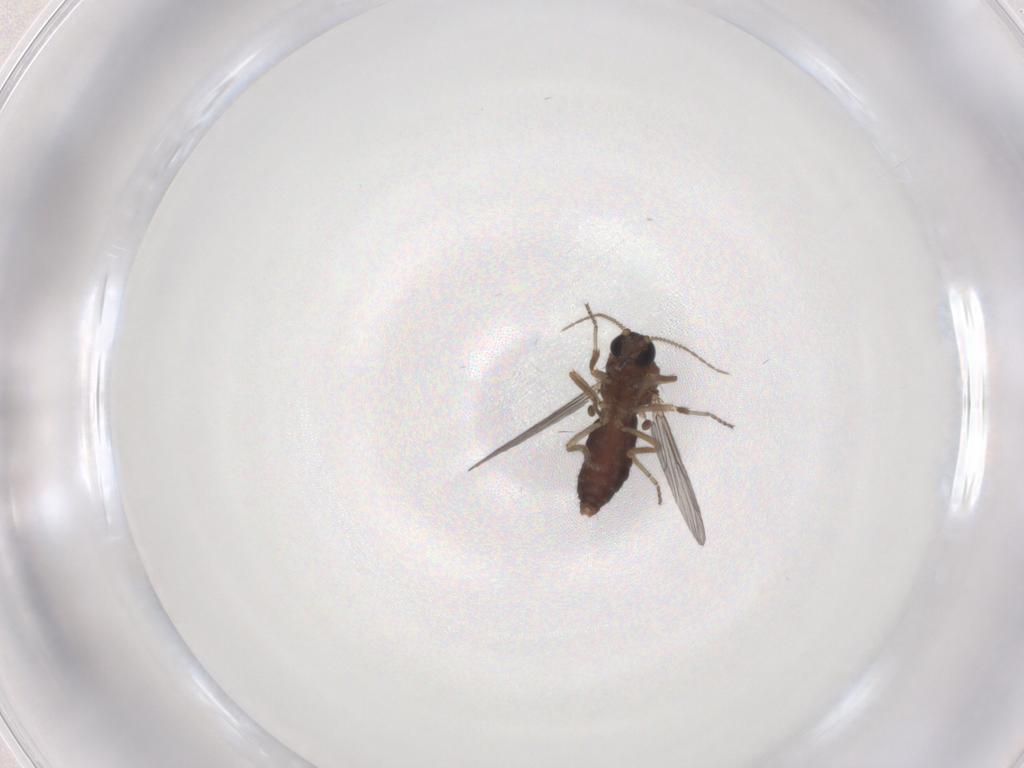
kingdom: Animalia
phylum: Arthropoda
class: Insecta
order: Diptera
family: Ceratopogonidae
